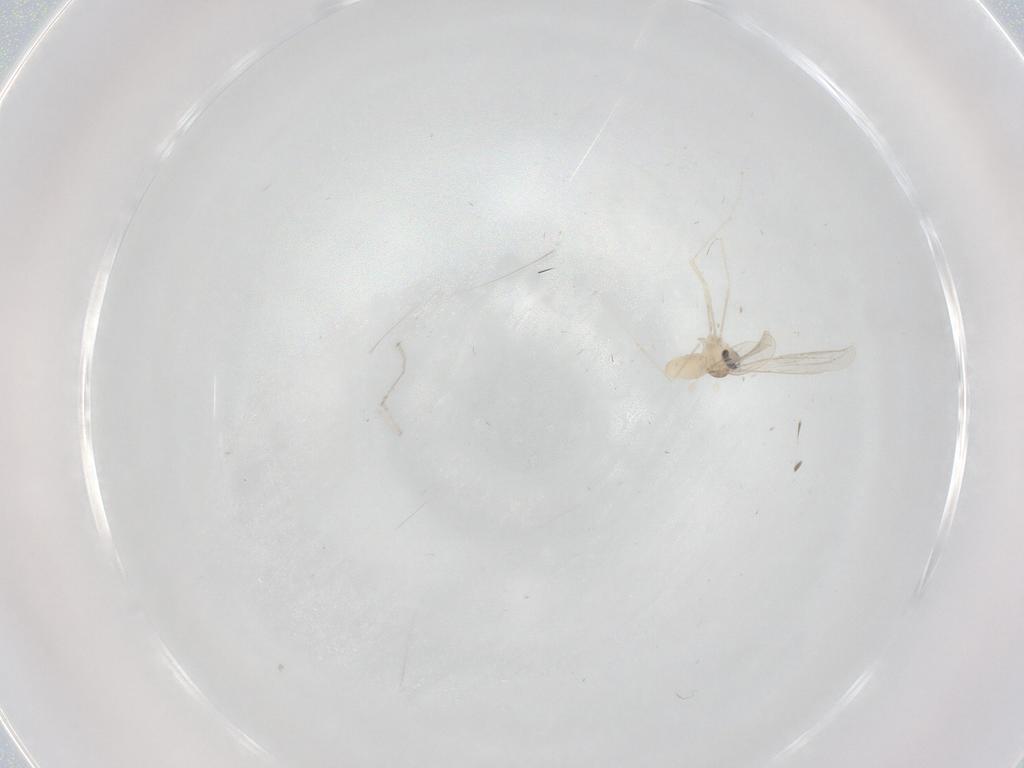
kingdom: Animalia
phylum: Arthropoda
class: Insecta
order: Diptera
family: Cecidomyiidae
